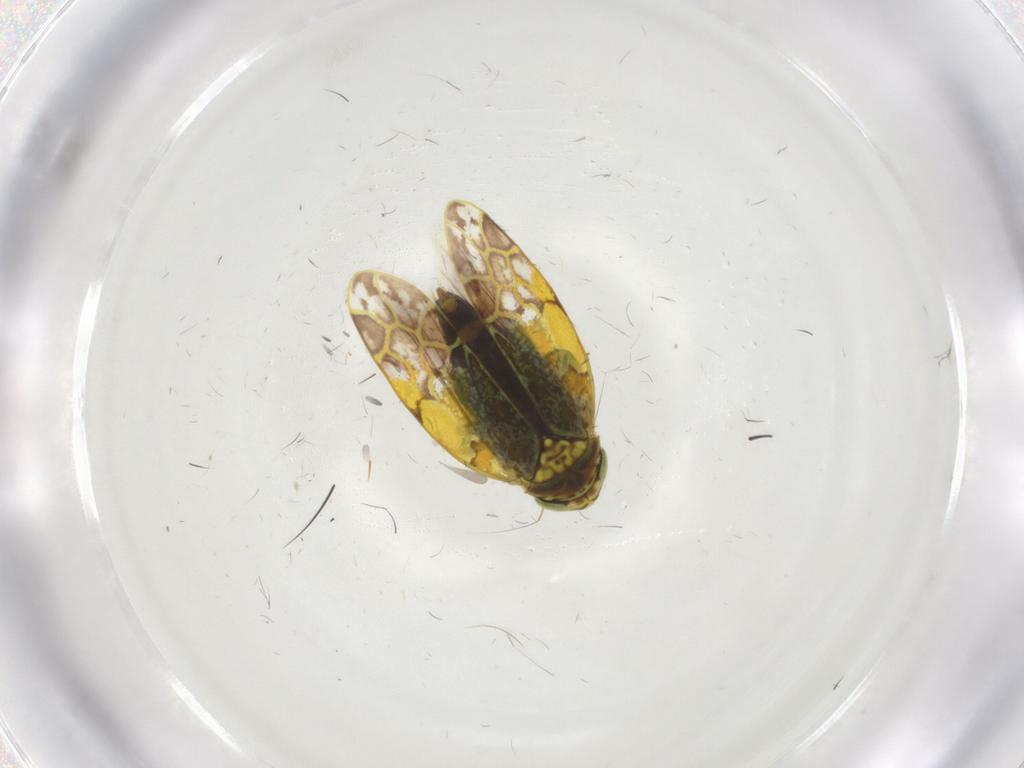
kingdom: Animalia
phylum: Arthropoda
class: Insecta
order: Hemiptera
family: Cicadellidae
